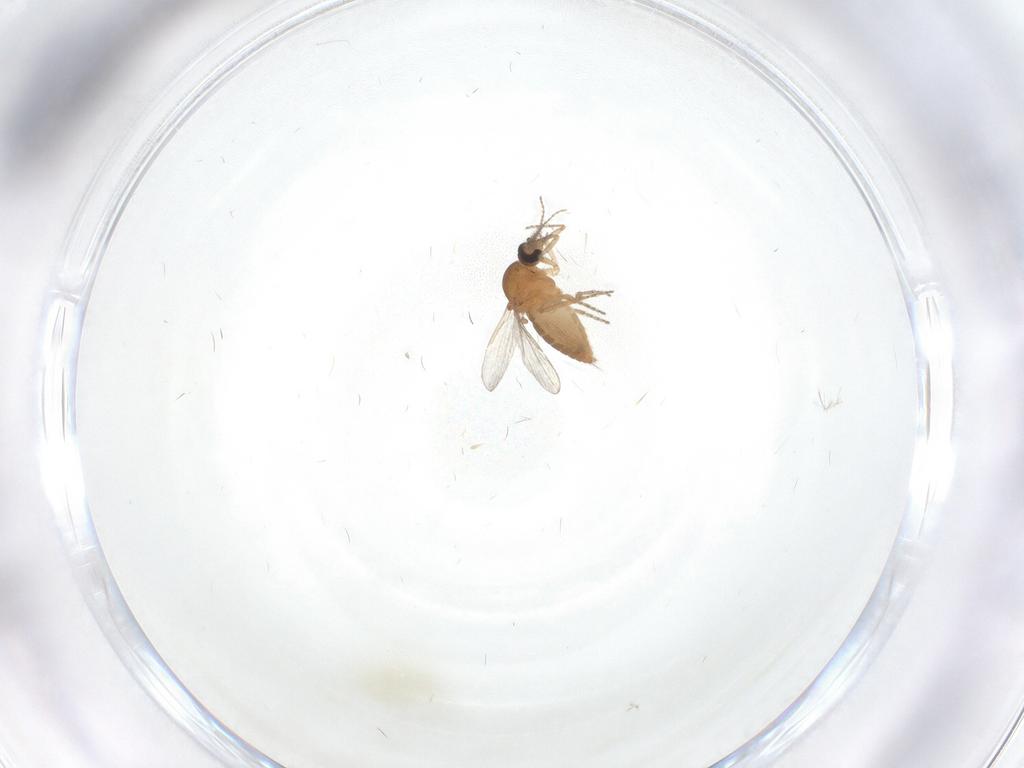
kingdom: Animalia
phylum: Arthropoda
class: Insecta
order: Diptera
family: Ceratopogonidae
